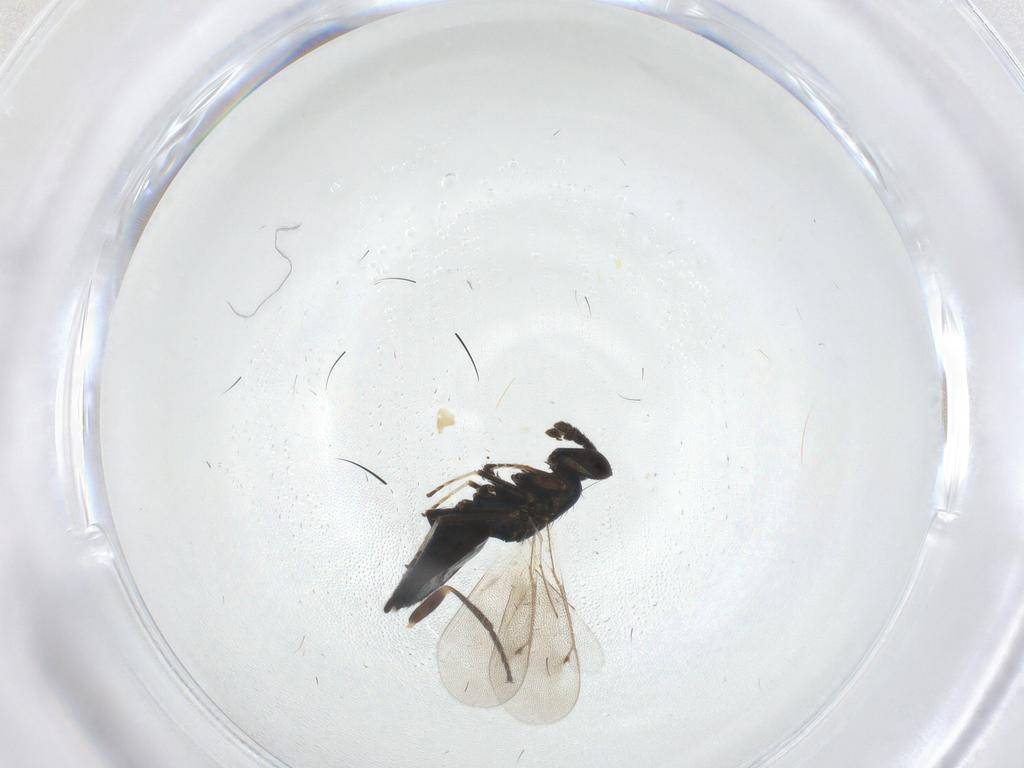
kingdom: Animalia
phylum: Arthropoda
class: Insecta
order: Hymenoptera
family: Eulophidae
